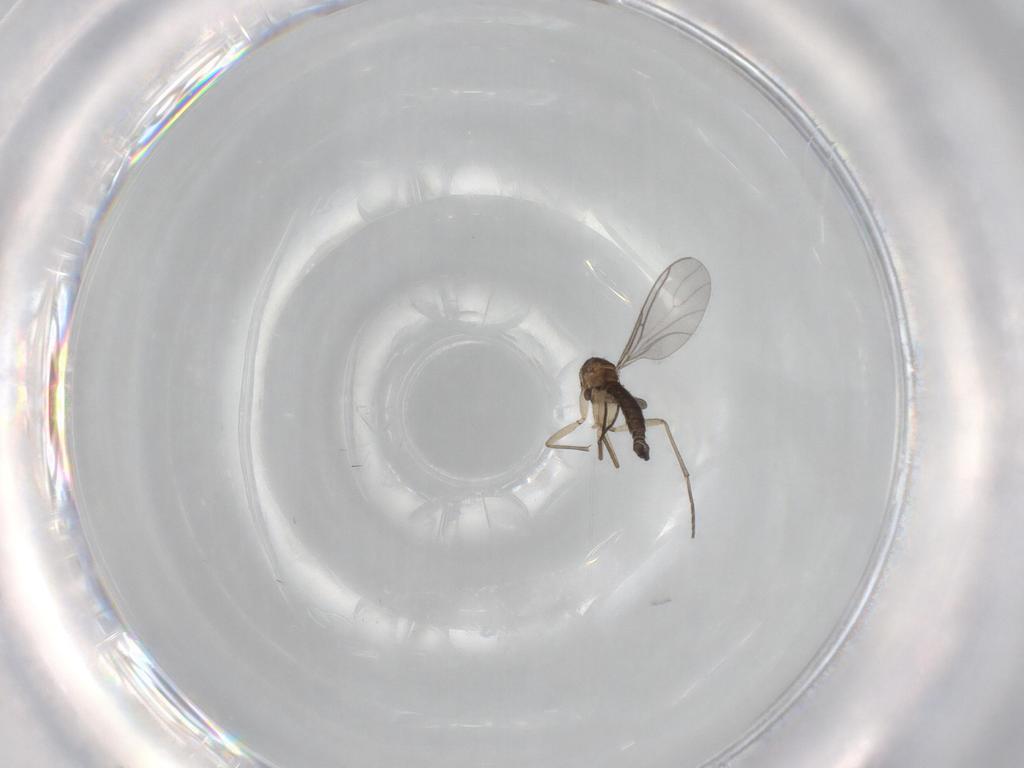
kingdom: Animalia
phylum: Arthropoda
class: Insecta
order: Diptera
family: Sciaridae
